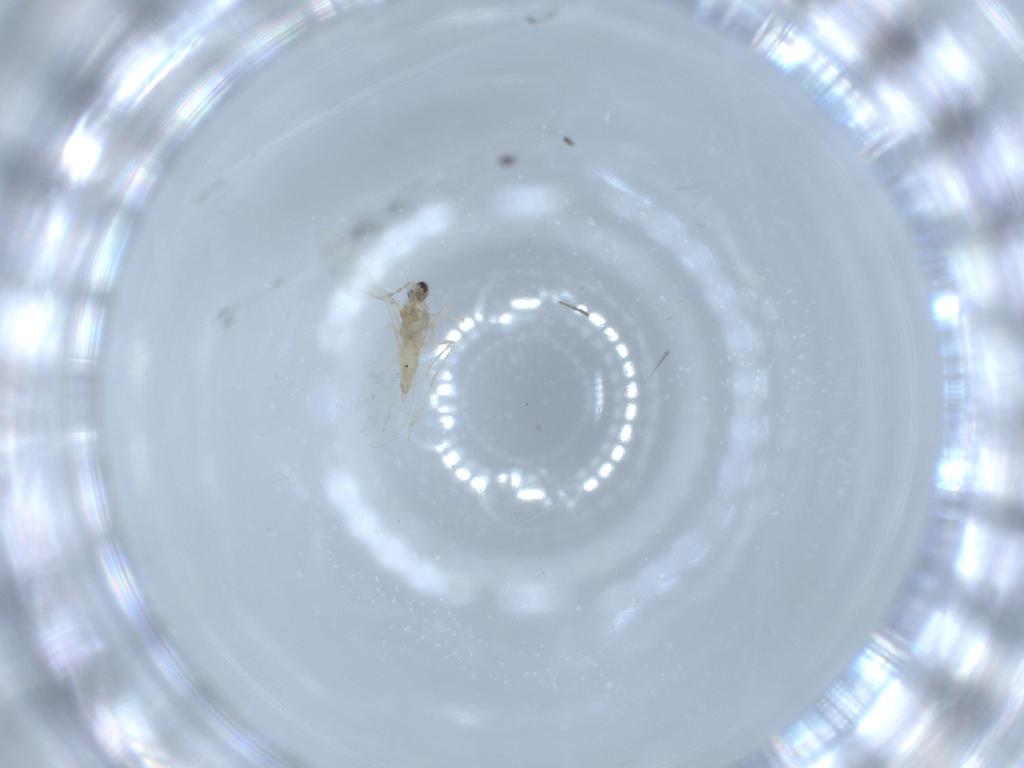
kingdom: Animalia
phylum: Arthropoda
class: Insecta
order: Diptera
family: Cecidomyiidae
